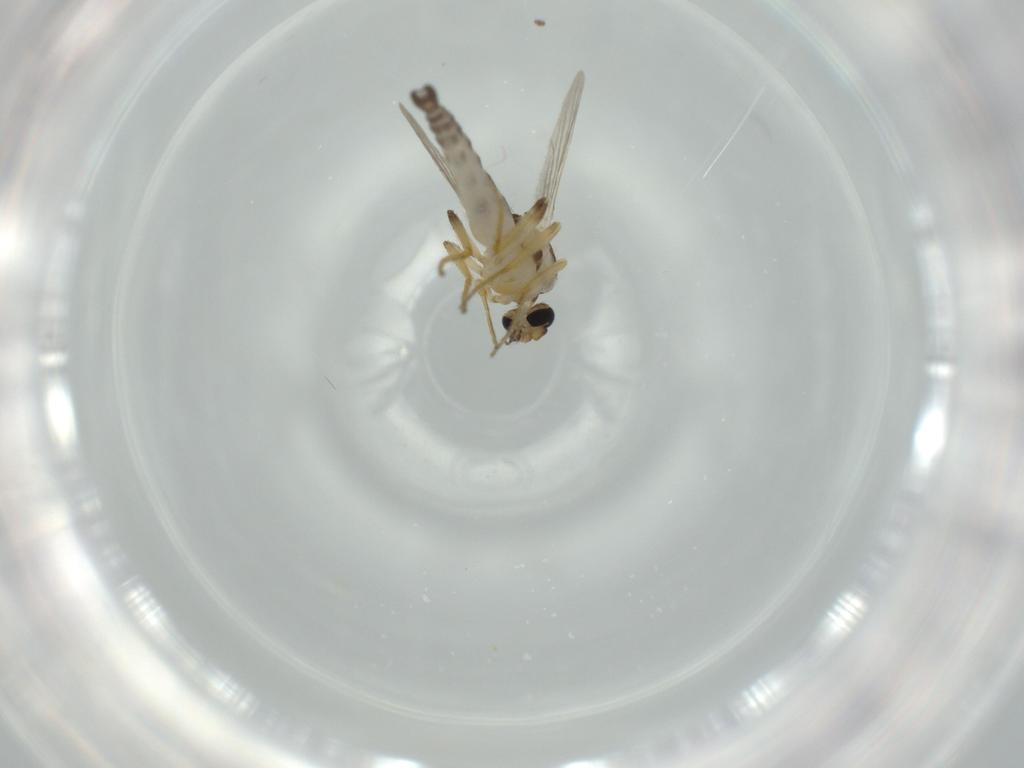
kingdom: Animalia
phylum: Arthropoda
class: Insecta
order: Diptera
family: Ceratopogonidae
